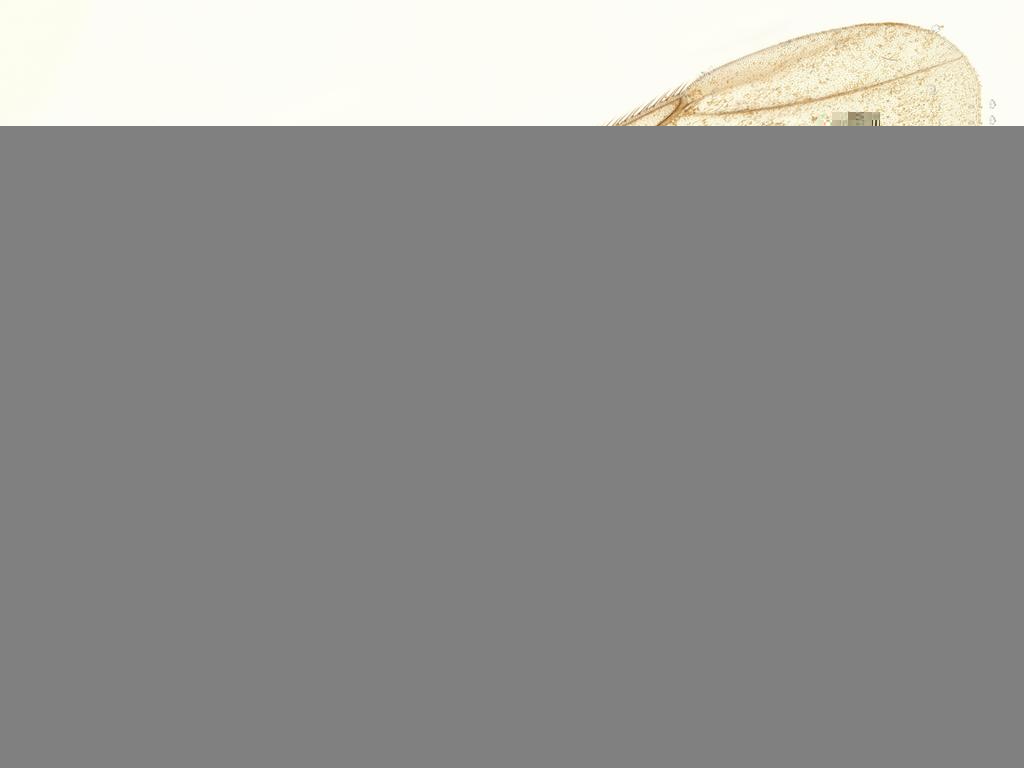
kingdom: Animalia
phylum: Arthropoda
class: Insecta
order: Diptera
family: Phoridae
